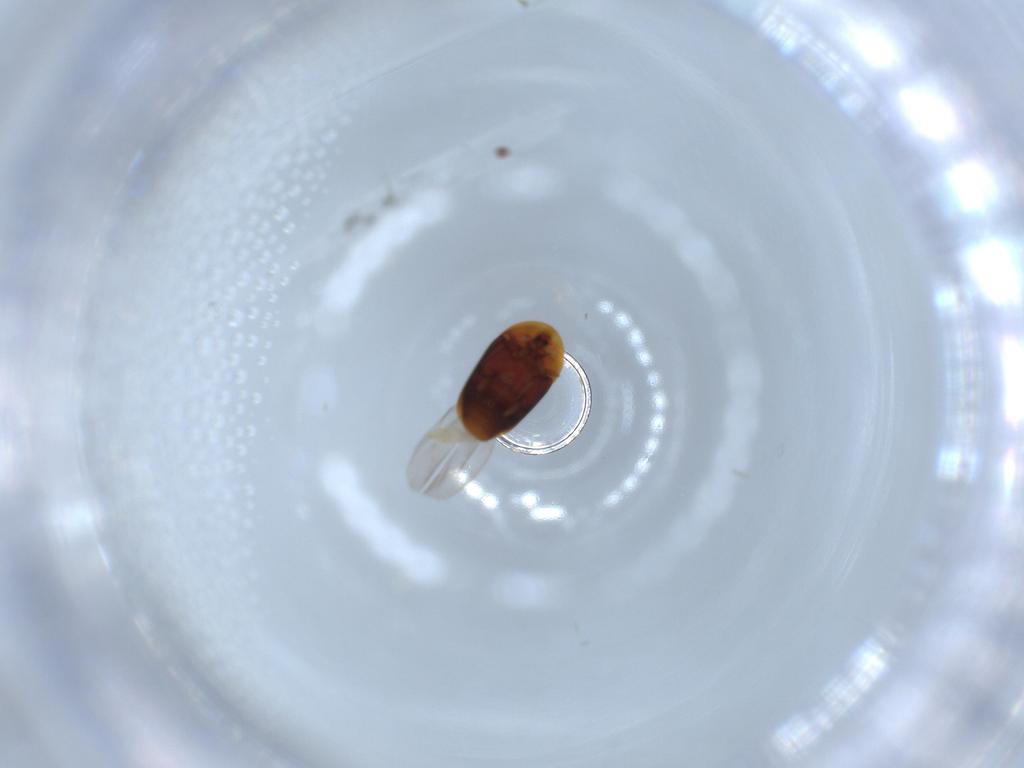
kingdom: Animalia
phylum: Arthropoda
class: Insecta
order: Coleoptera
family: Corylophidae
